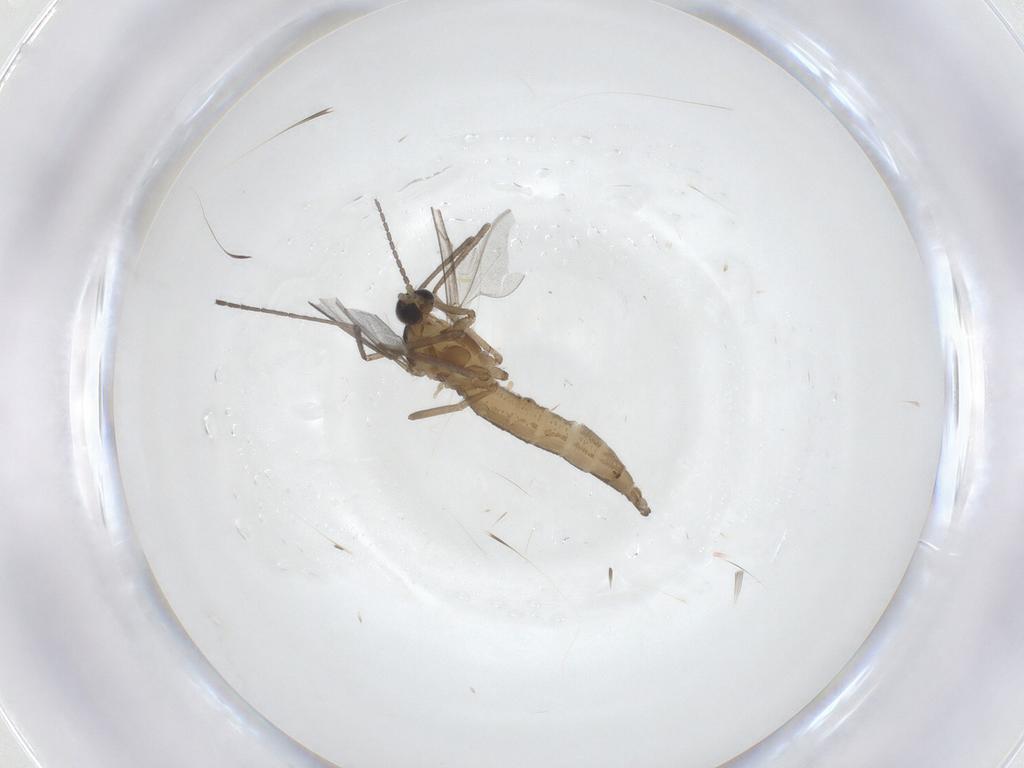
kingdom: Animalia
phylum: Arthropoda
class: Insecta
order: Diptera
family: Cecidomyiidae
